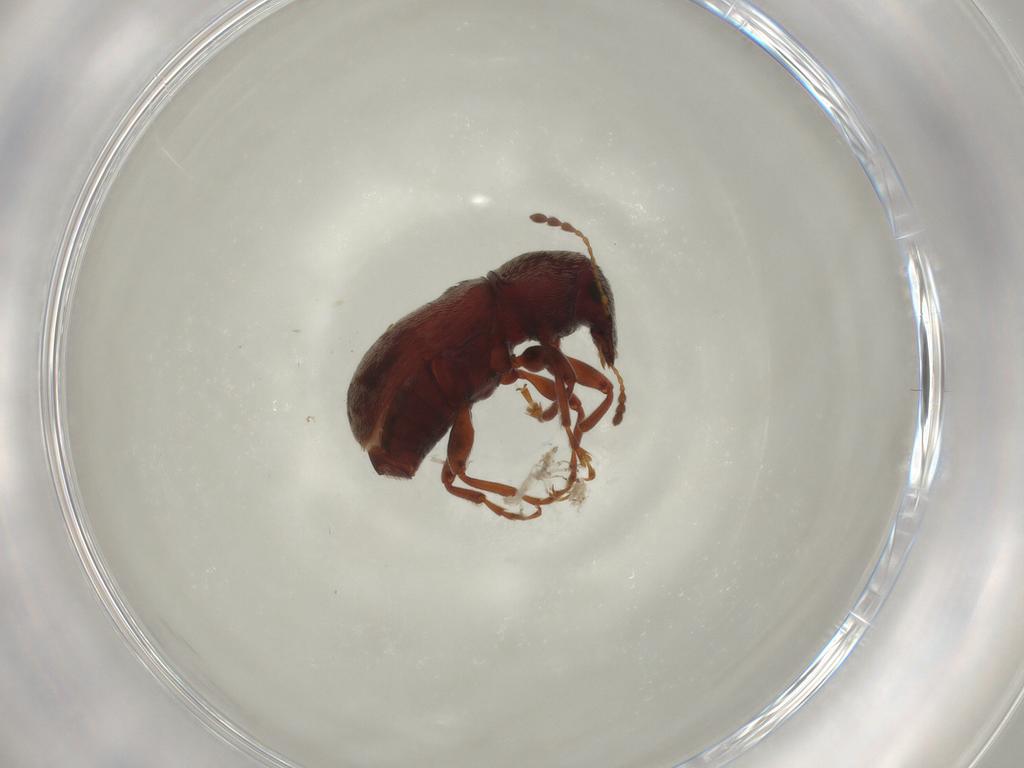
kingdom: Animalia
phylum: Arthropoda
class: Insecta
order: Coleoptera
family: Anthribidae
